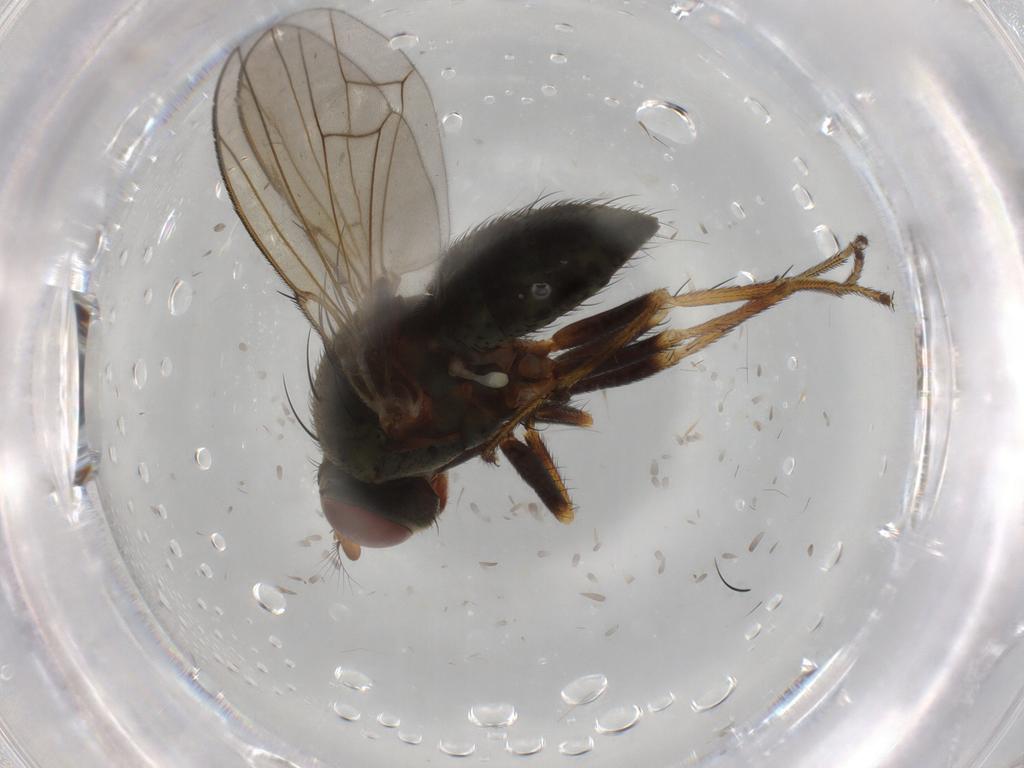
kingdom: Animalia
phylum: Arthropoda
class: Insecta
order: Diptera
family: Ephydridae
